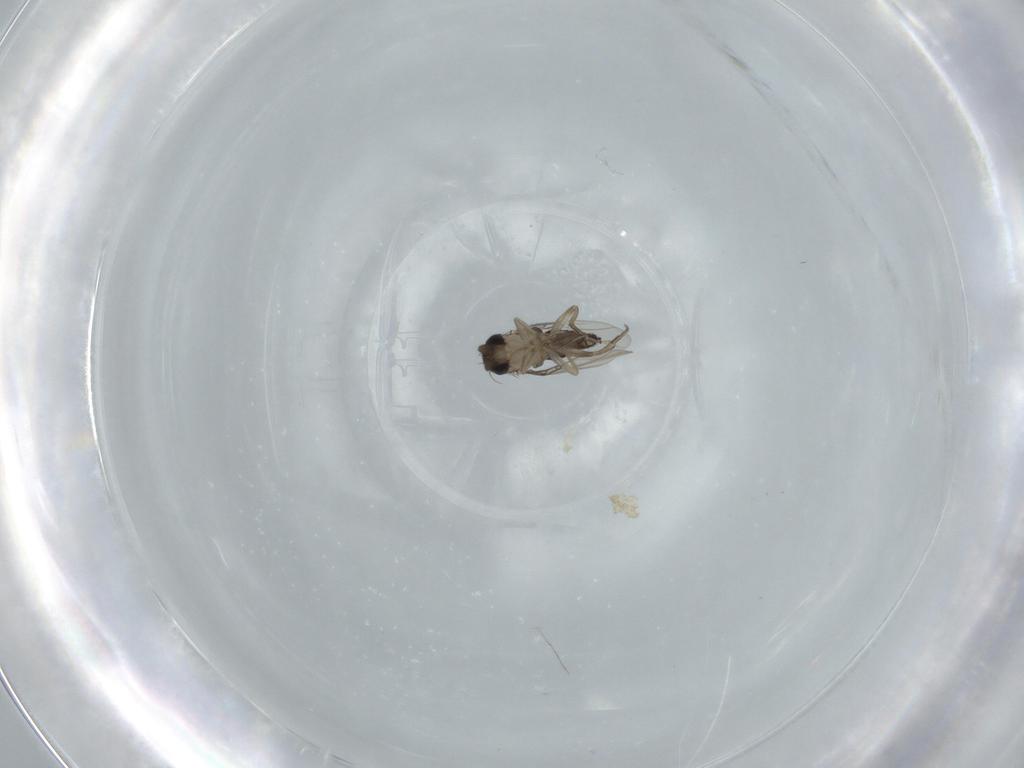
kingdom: Animalia
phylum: Arthropoda
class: Insecta
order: Diptera
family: Phoridae
